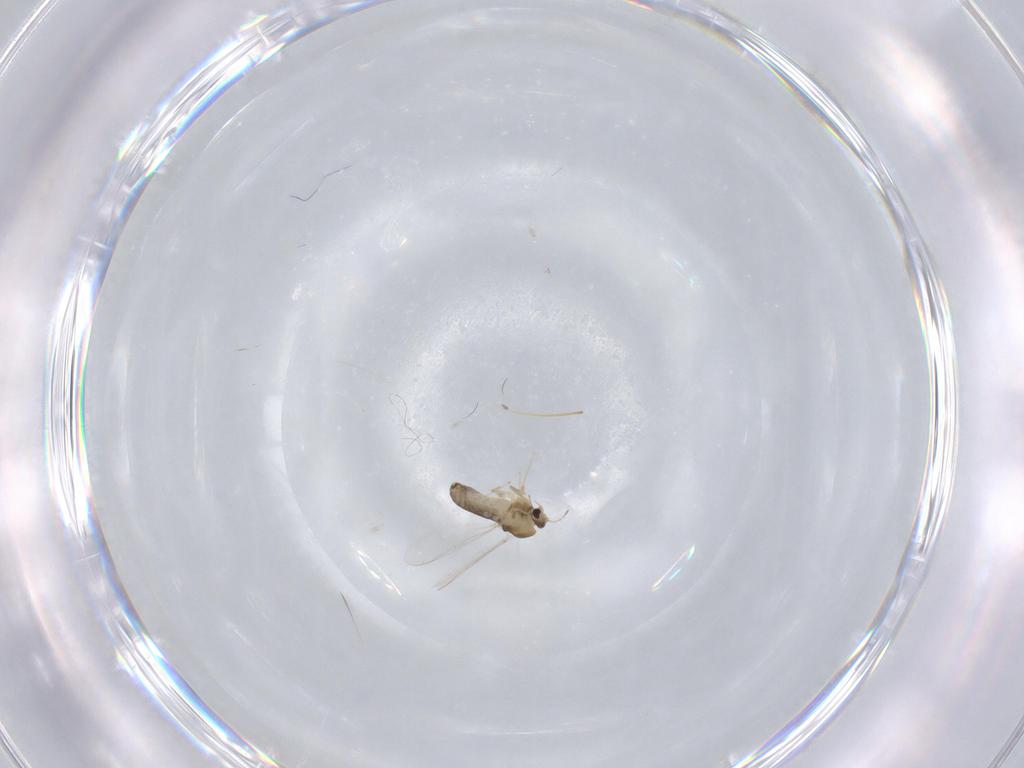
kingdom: Animalia
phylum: Arthropoda
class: Insecta
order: Diptera
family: Chironomidae
